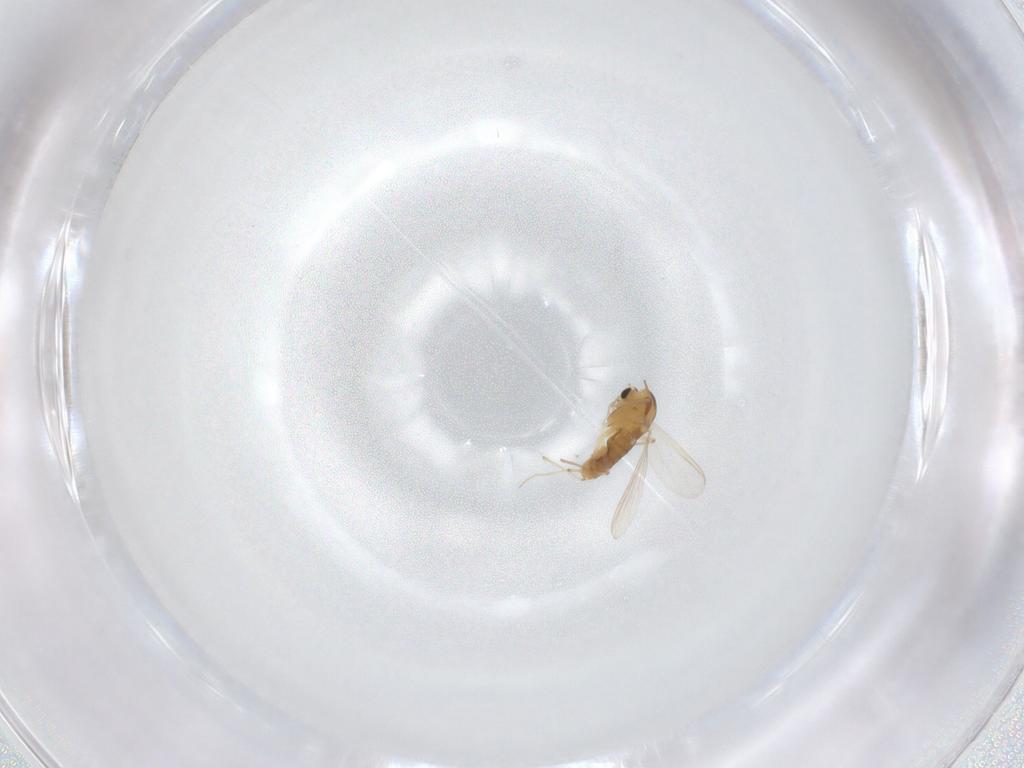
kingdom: Animalia
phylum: Arthropoda
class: Insecta
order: Diptera
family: Chironomidae
